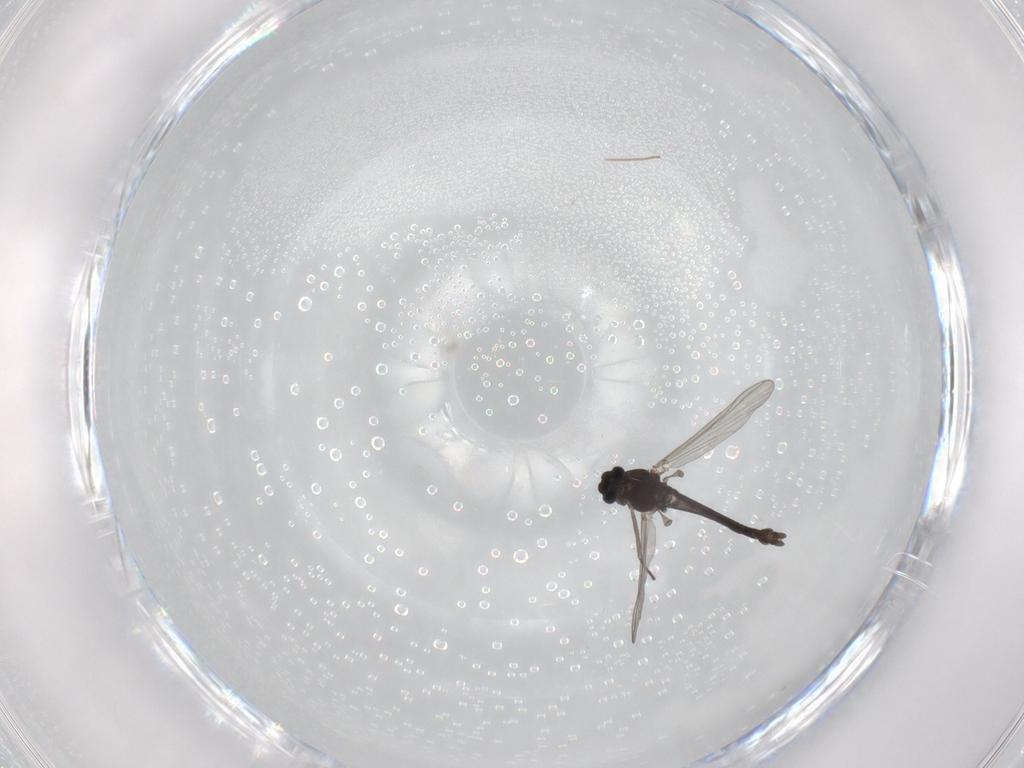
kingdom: Animalia
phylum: Arthropoda
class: Insecta
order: Diptera
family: Chironomidae
